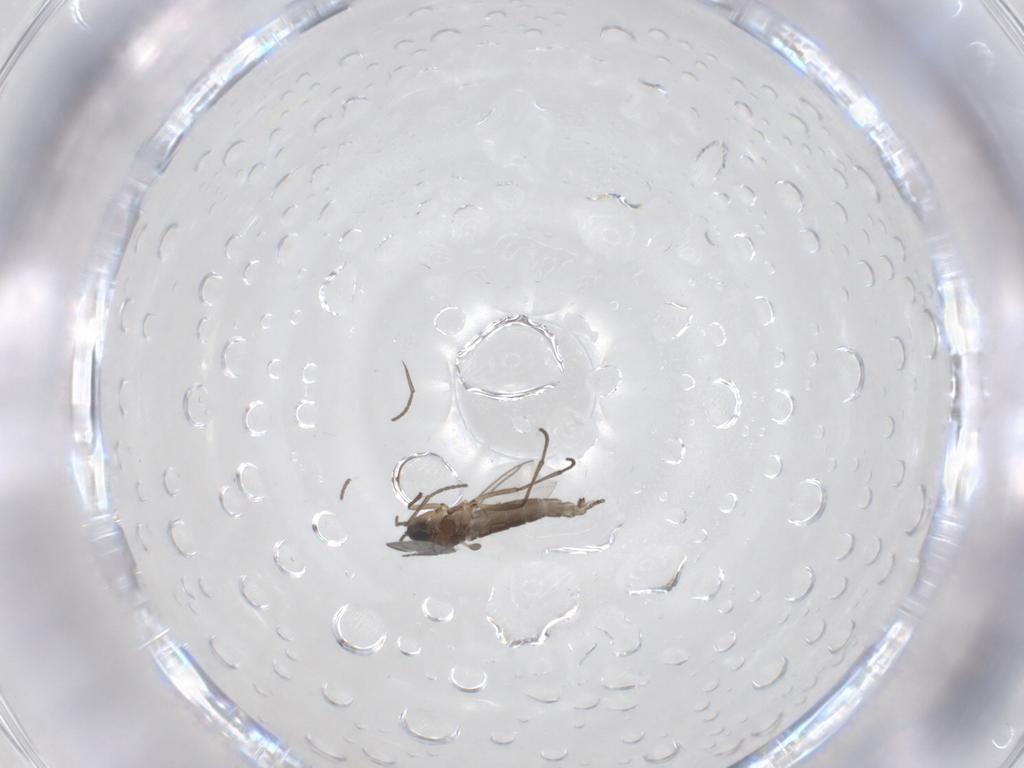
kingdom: Animalia
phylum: Arthropoda
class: Insecta
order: Diptera
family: Sciaridae
